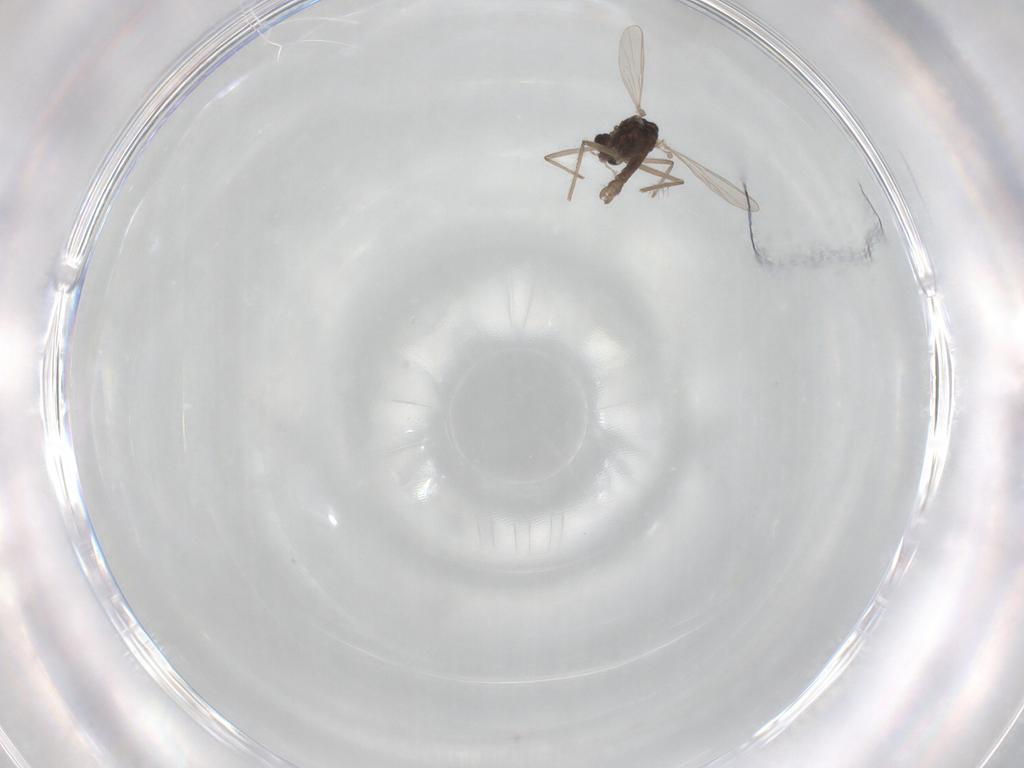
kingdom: Animalia
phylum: Arthropoda
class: Insecta
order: Diptera
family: Chironomidae
